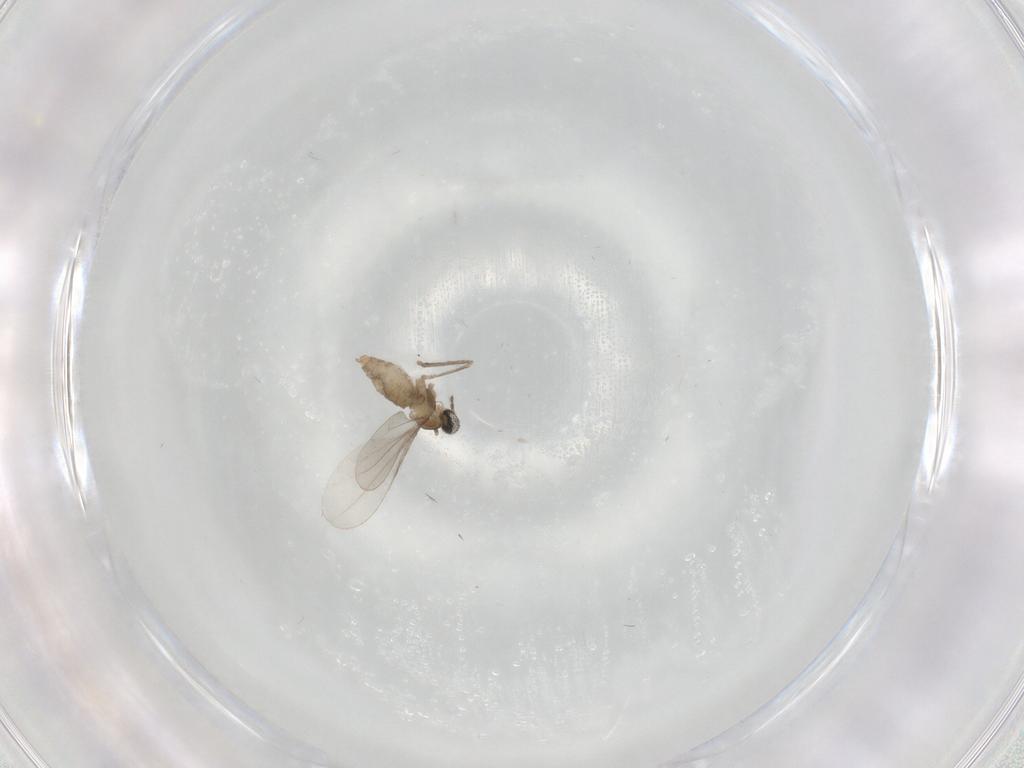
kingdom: Animalia
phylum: Arthropoda
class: Insecta
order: Diptera
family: Cecidomyiidae
